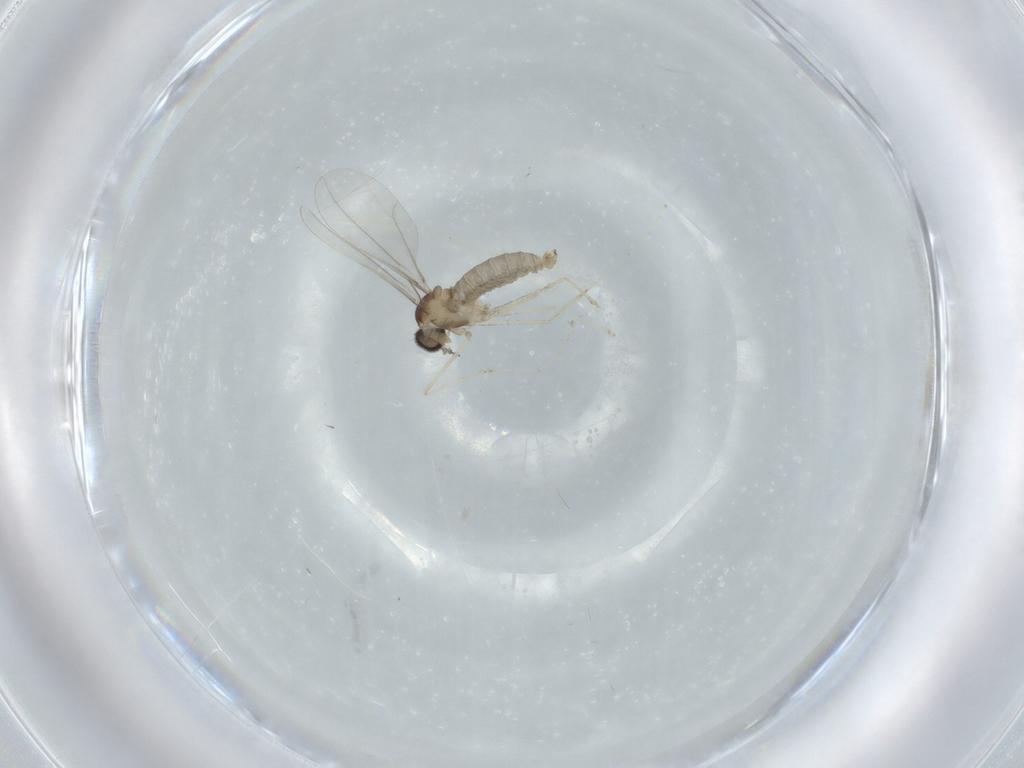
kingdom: Animalia
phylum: Arthropoda
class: Insecta
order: Diptera
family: Cecidomyiidae
